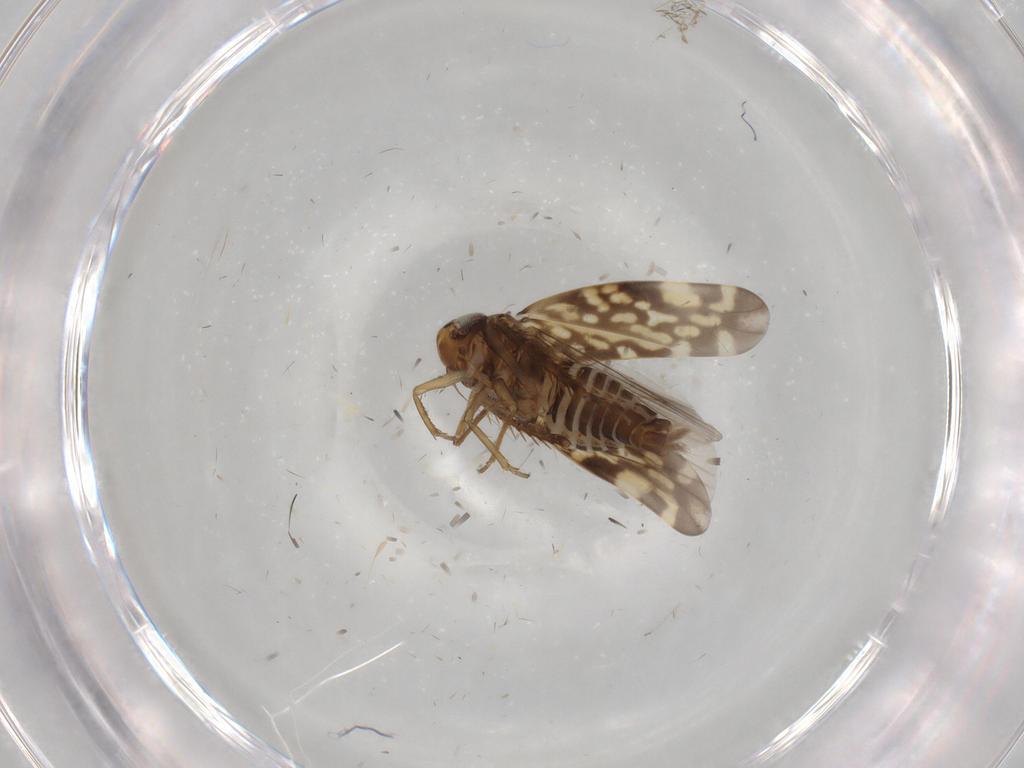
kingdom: Animalia
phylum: Arthropoda
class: Insecta
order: Hemiptera
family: Cicadellidae
